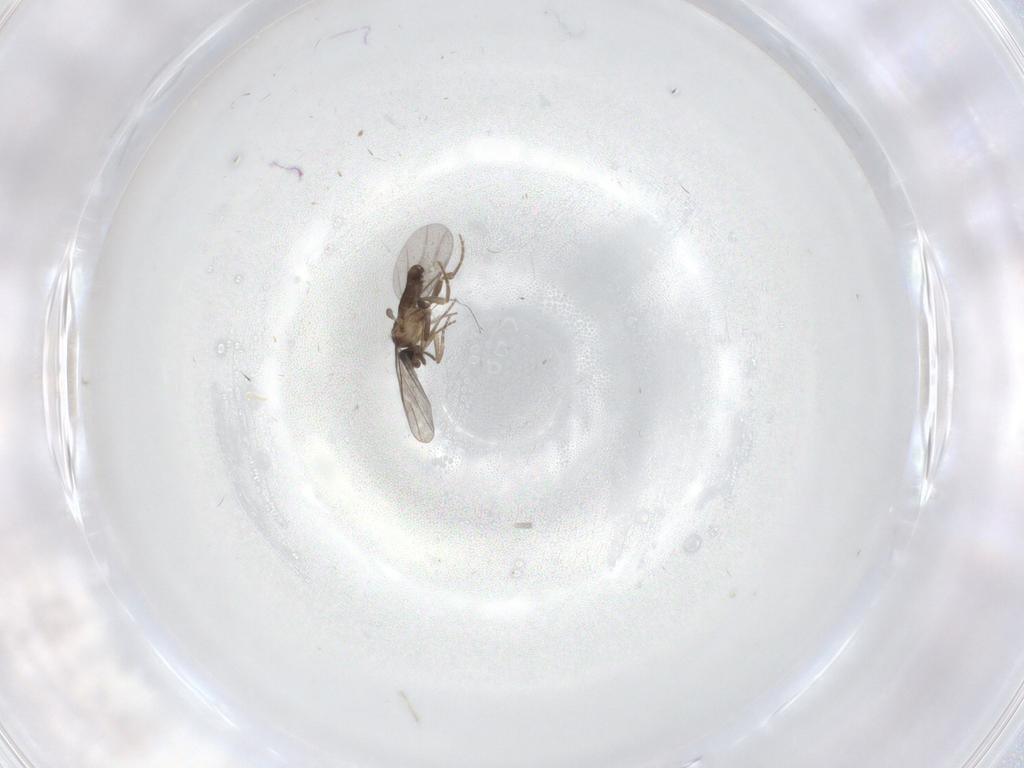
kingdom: Animalia
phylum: Arthropoda
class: Insecta
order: Diptera
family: Phoridae
